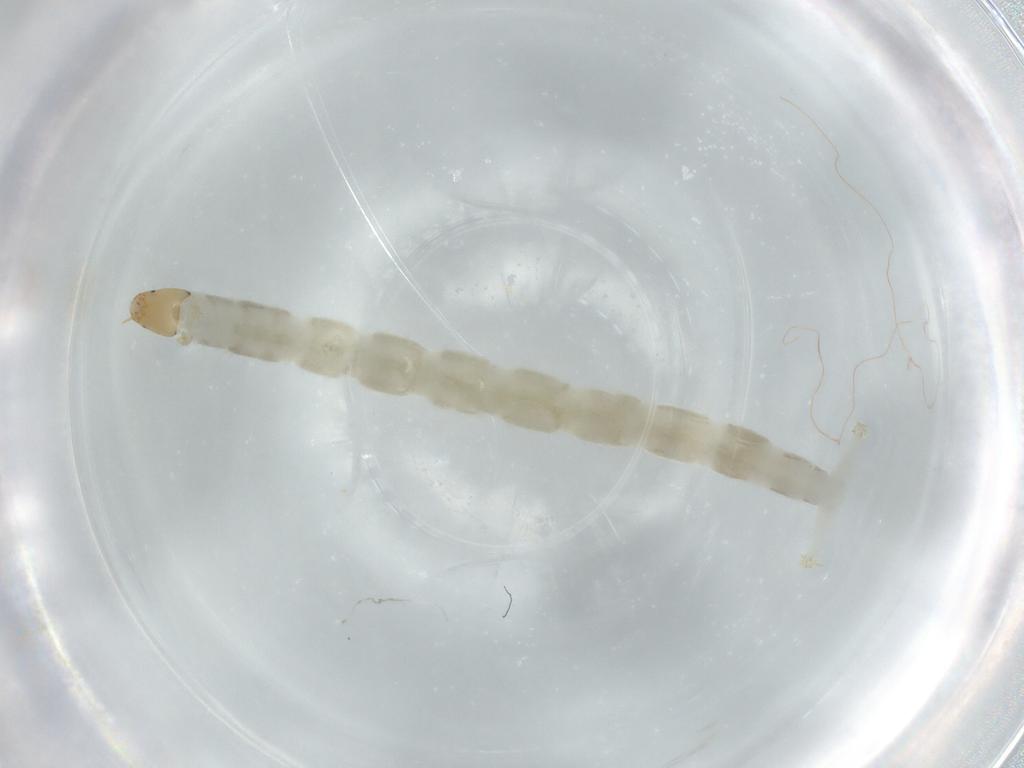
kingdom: Animalia
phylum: Arthropoda
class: Insecta
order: Diptera
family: Chironomidae
